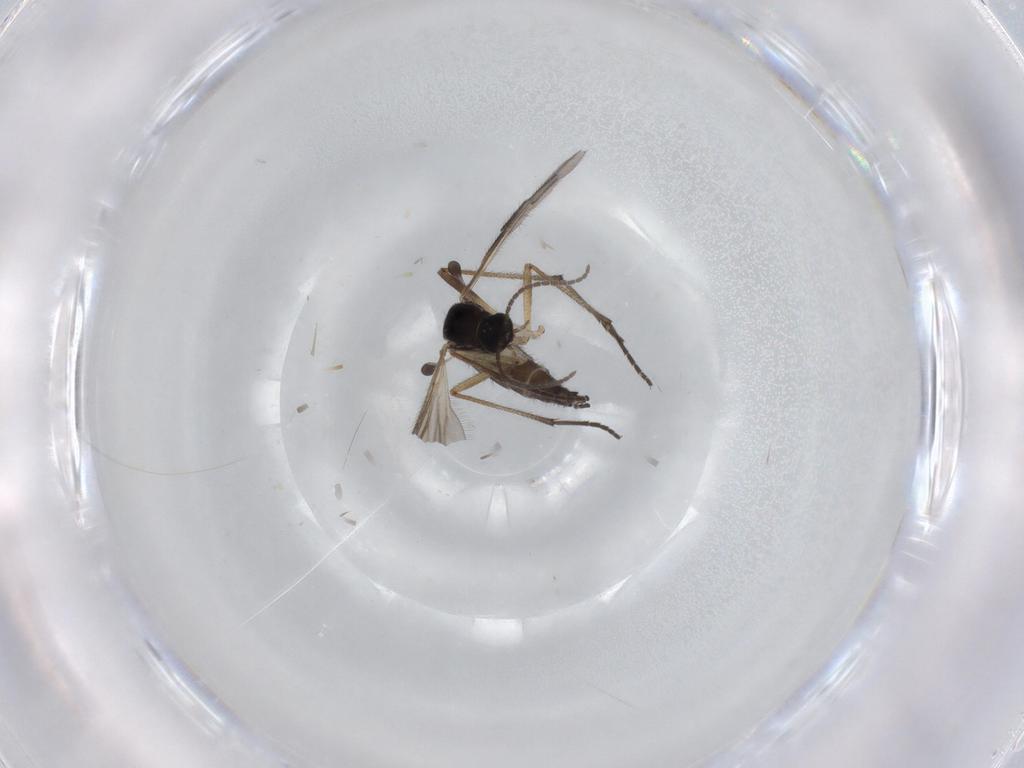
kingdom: Animalia
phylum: Arthropoda
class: Insecta
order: Diptera
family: Sciaridae
